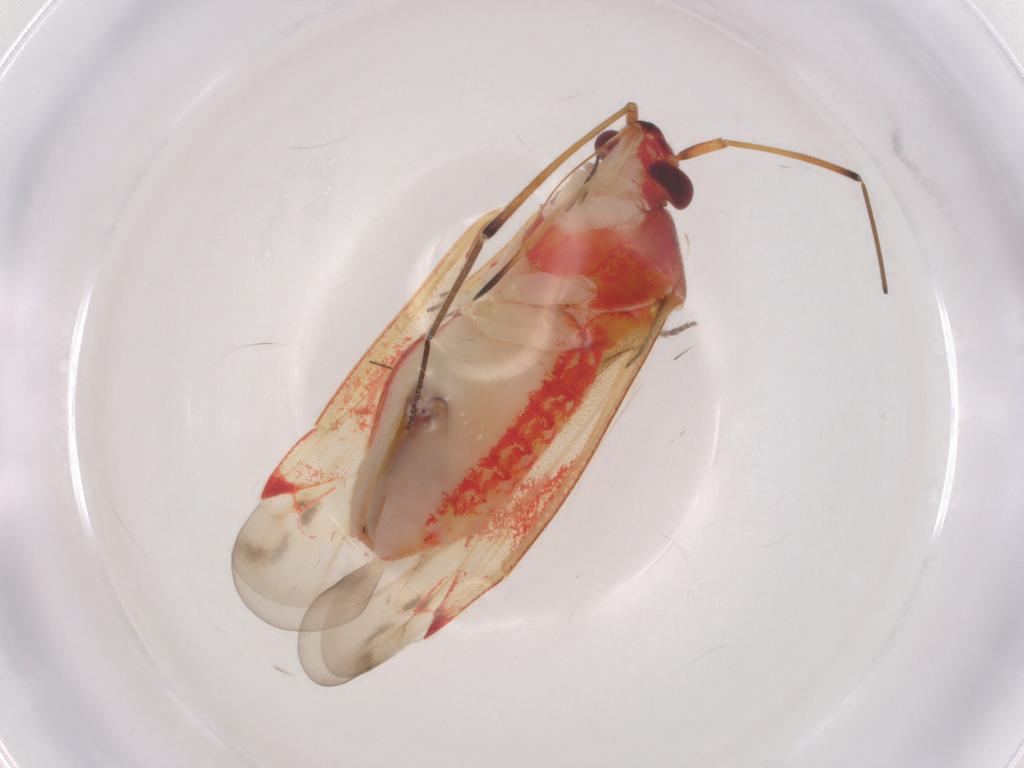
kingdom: Animalia
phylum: Arthropoda
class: Insecta
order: Hemiptera
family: Miridae
